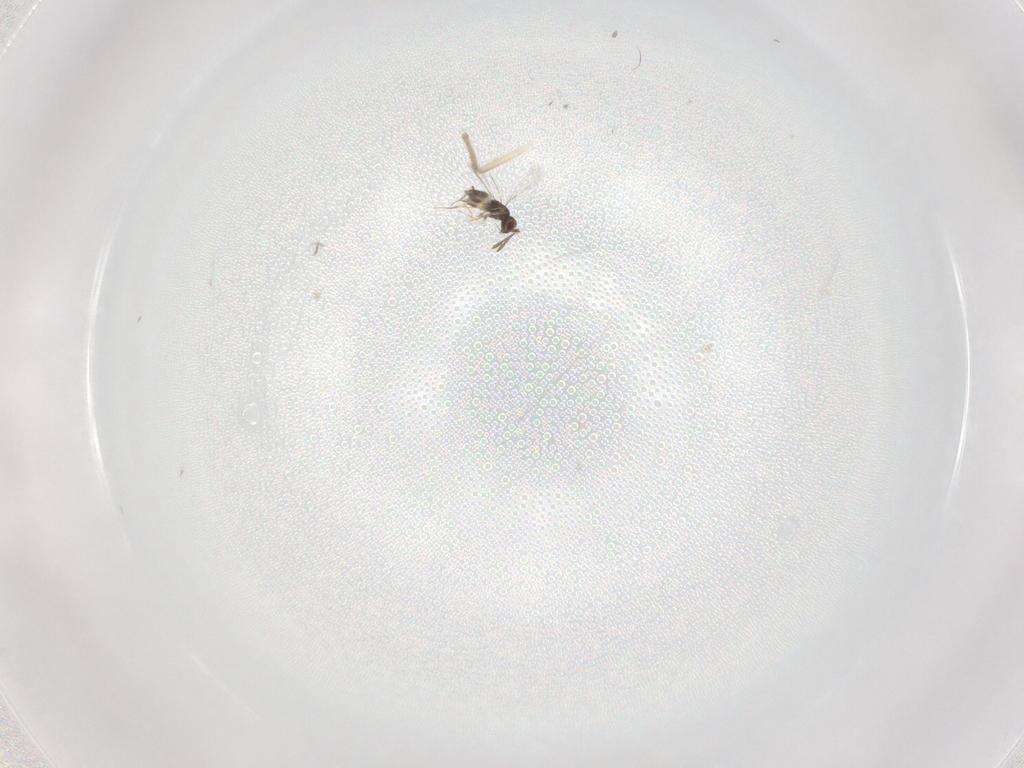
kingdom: Animalia
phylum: Arthropoda
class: Insecta
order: Hymenoptera
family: Mymaridae
